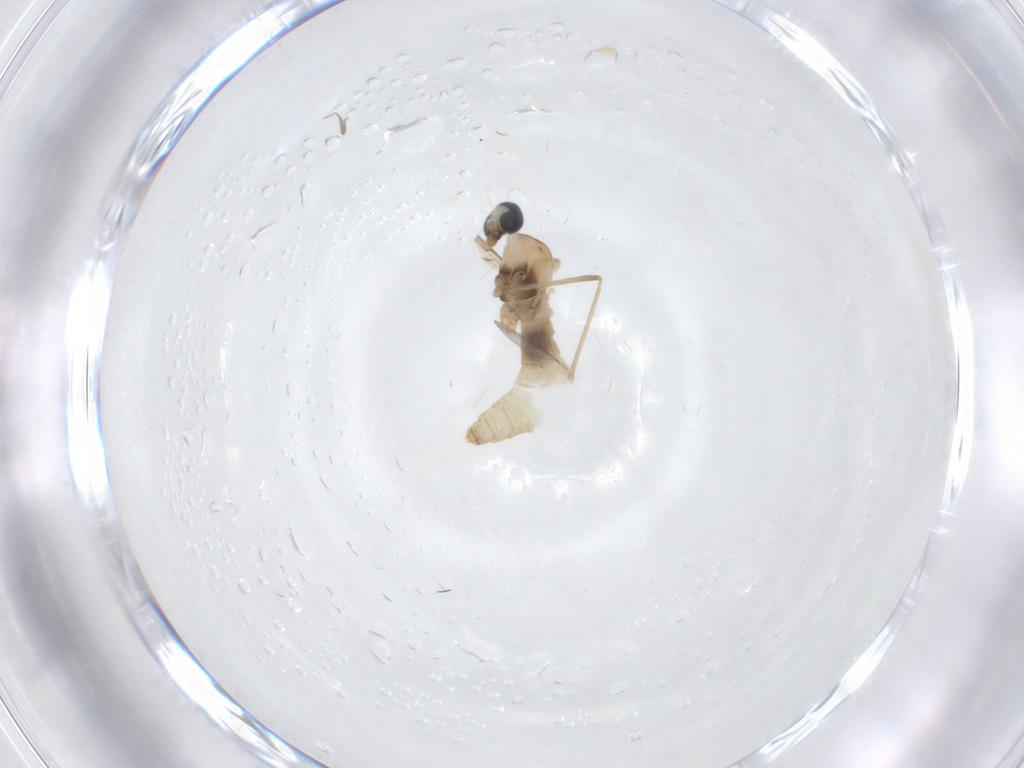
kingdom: Animalia
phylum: Arthropoda
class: Insecta
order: Diptera
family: Cecidomyiidae
